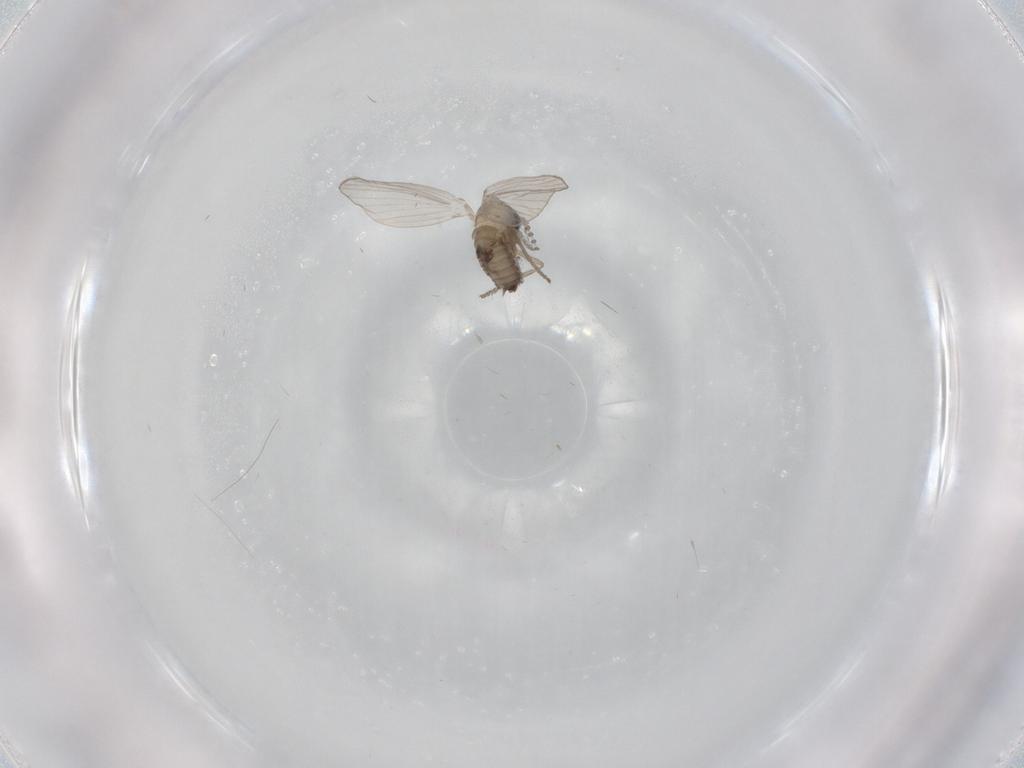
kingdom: Animalia
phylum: Arthropoda
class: Insecta
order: Diptera
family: Psychodidae
